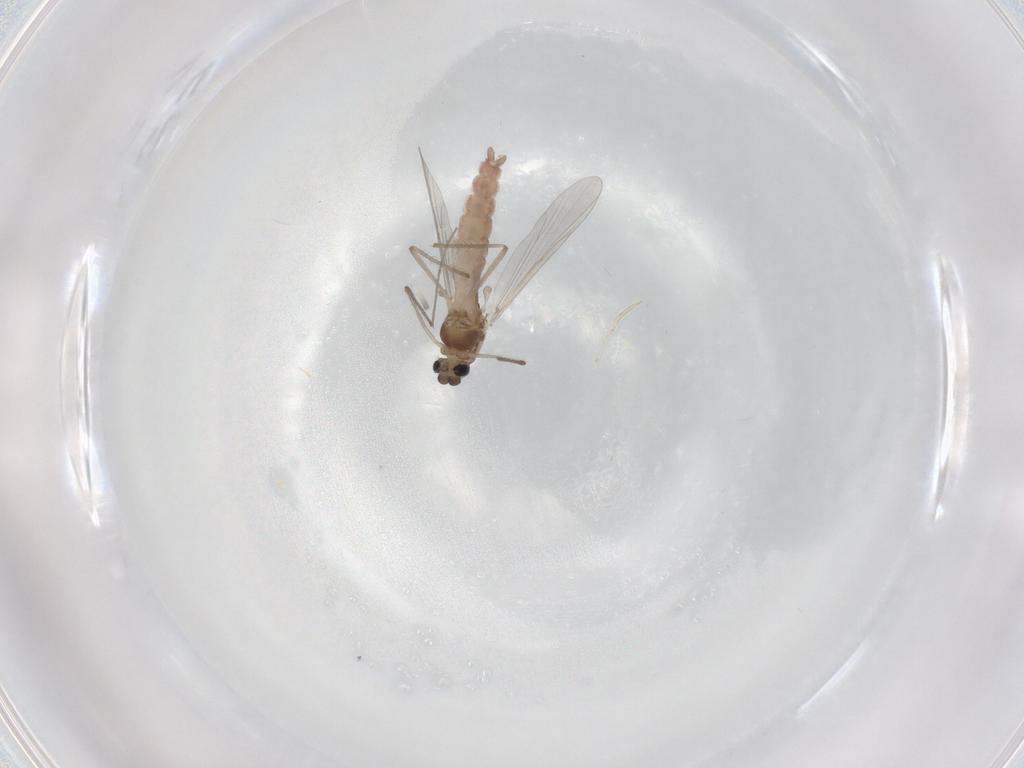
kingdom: Animalia
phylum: Arthropoda
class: Insecta
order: Diptera
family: Chironomidae
